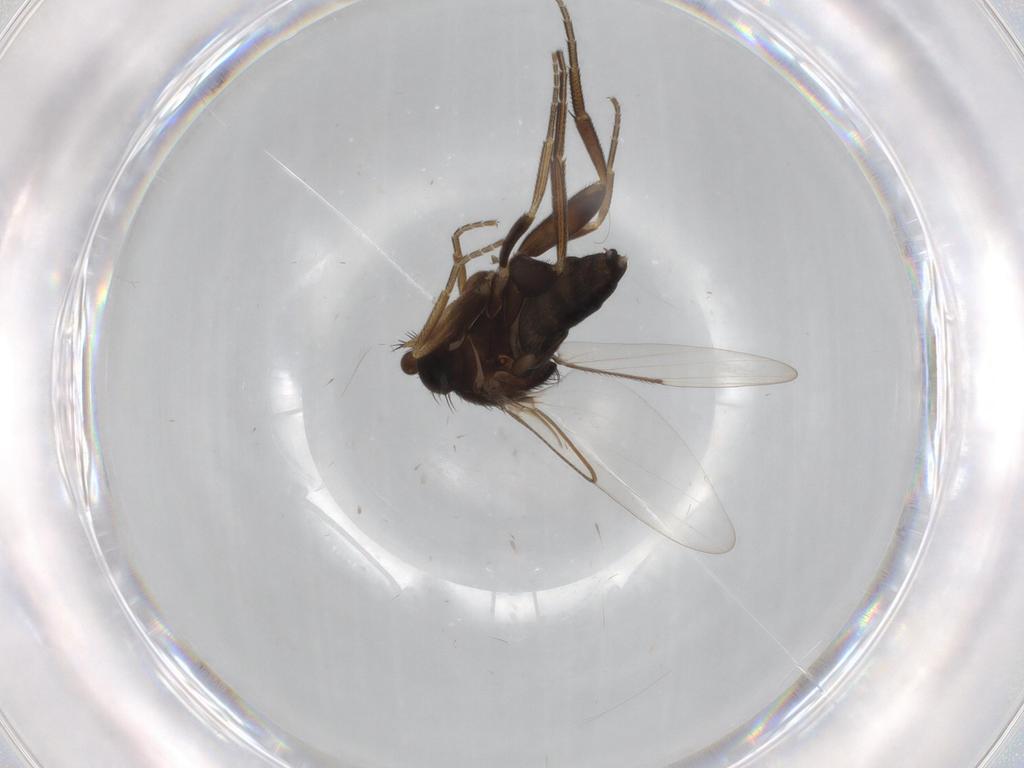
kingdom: Animalia
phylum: Arthropoda
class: Insecta
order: Diptera
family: Phoridae
